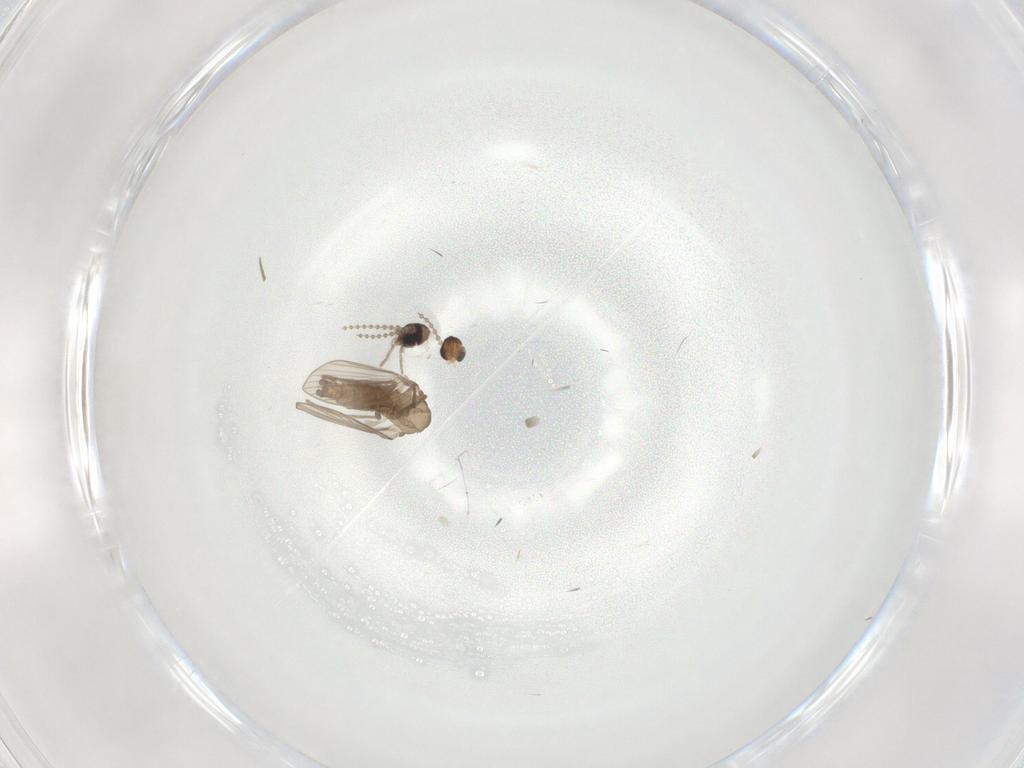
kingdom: Animalia
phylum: Arthropoda
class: Insecta
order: Diptera
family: Psychodidae
